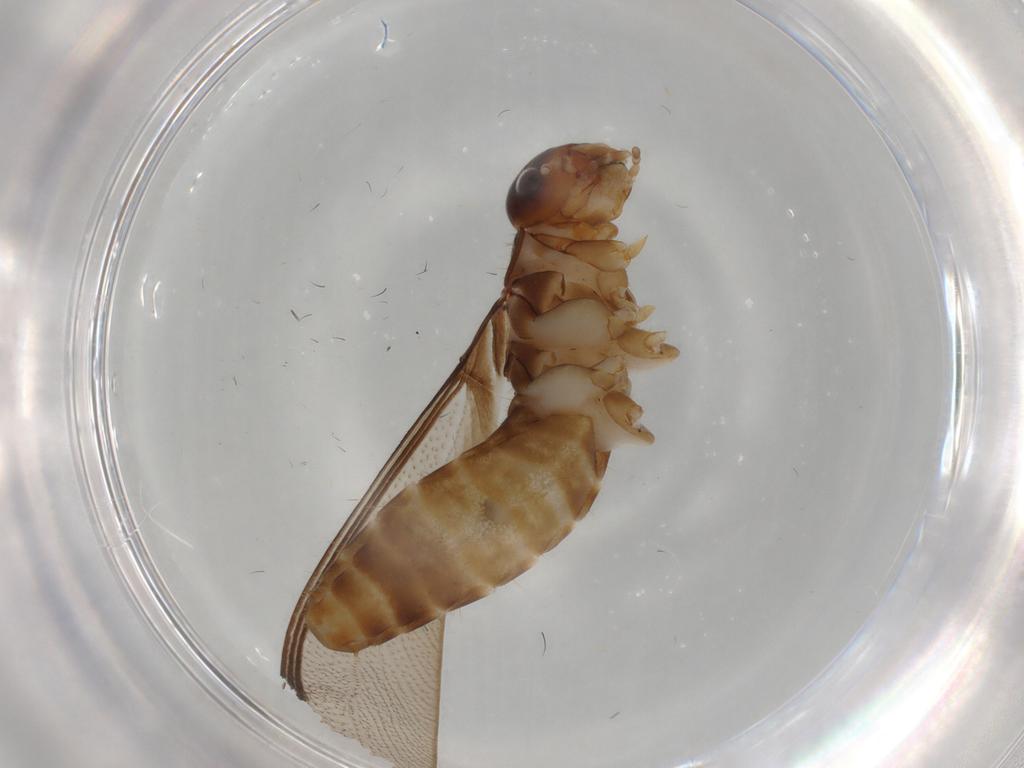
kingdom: Animalia
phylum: Arthropoda
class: Insecta
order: Blattodea
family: Kalotermitidae
